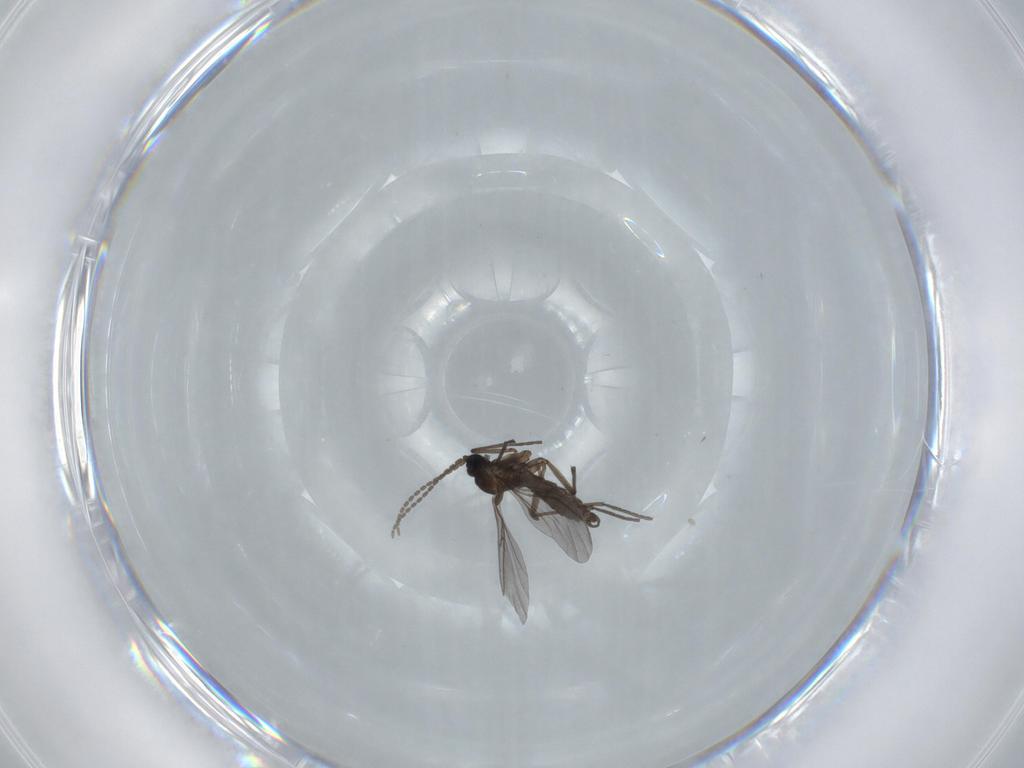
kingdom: Animalia
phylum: Arthropoda
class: Insecta
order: Diptera
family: Sciaridae
